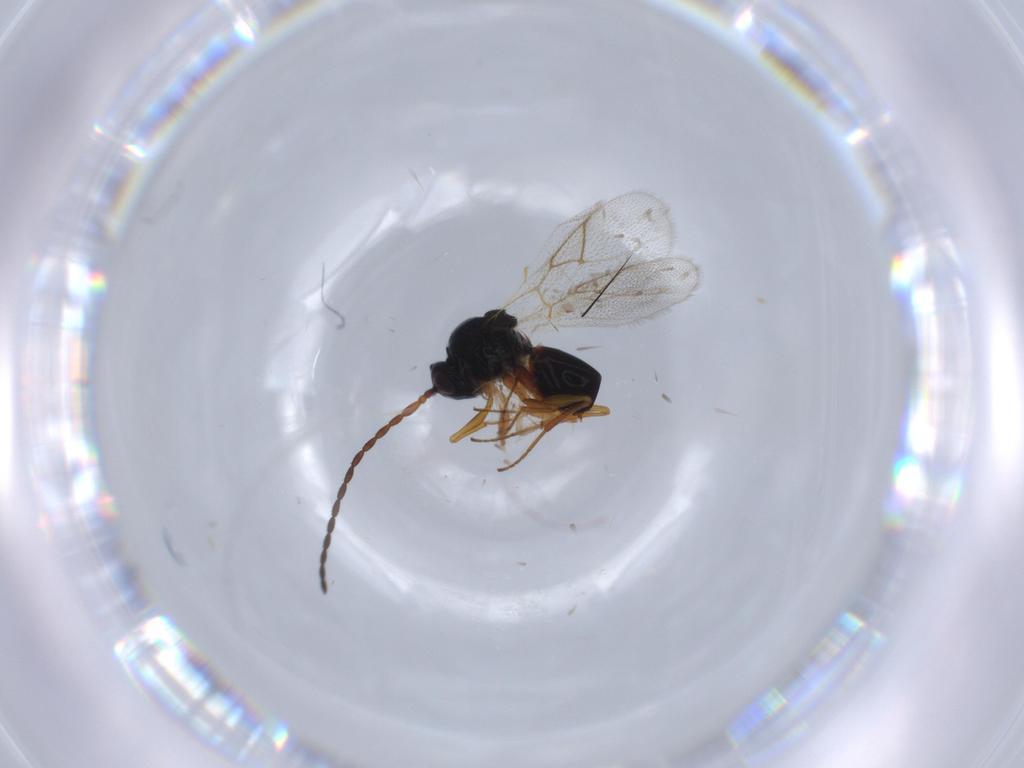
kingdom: Animalia
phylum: Arthropoda
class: Insecta
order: Hymenoptera
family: Figitidae
